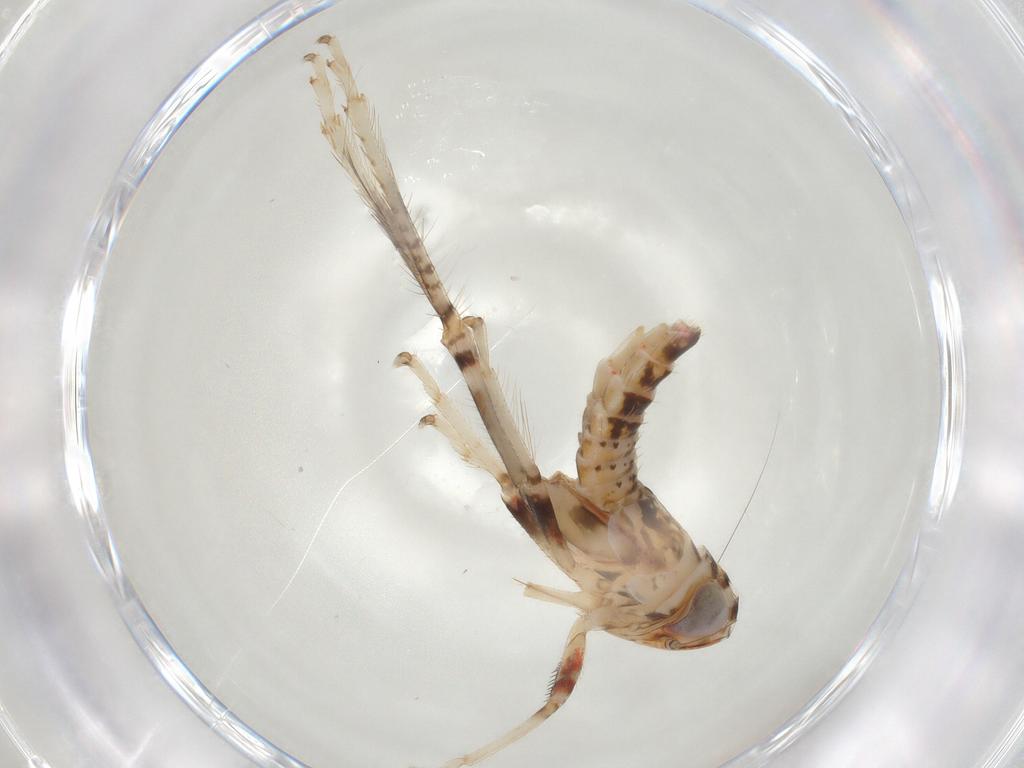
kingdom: Animalia
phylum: Arthropoda
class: Insecta
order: Hemiptera
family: Cicadellidae
